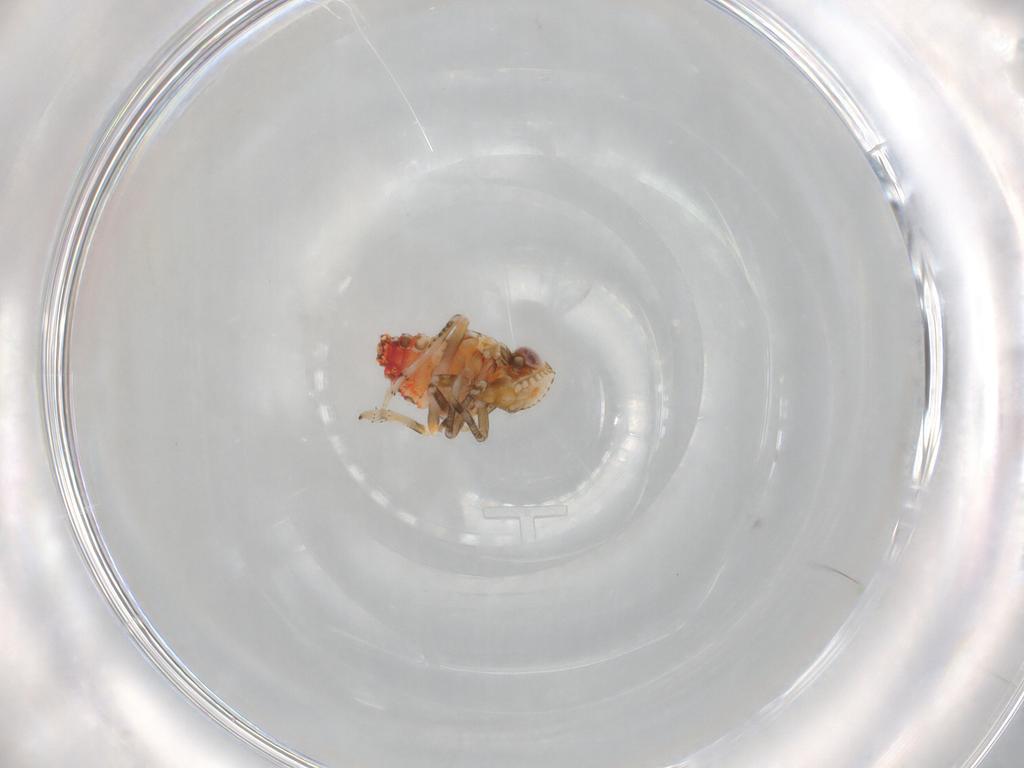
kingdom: Animalia
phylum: Arthropoda
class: Insecta
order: Hemiptera
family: Tropiduchidae
